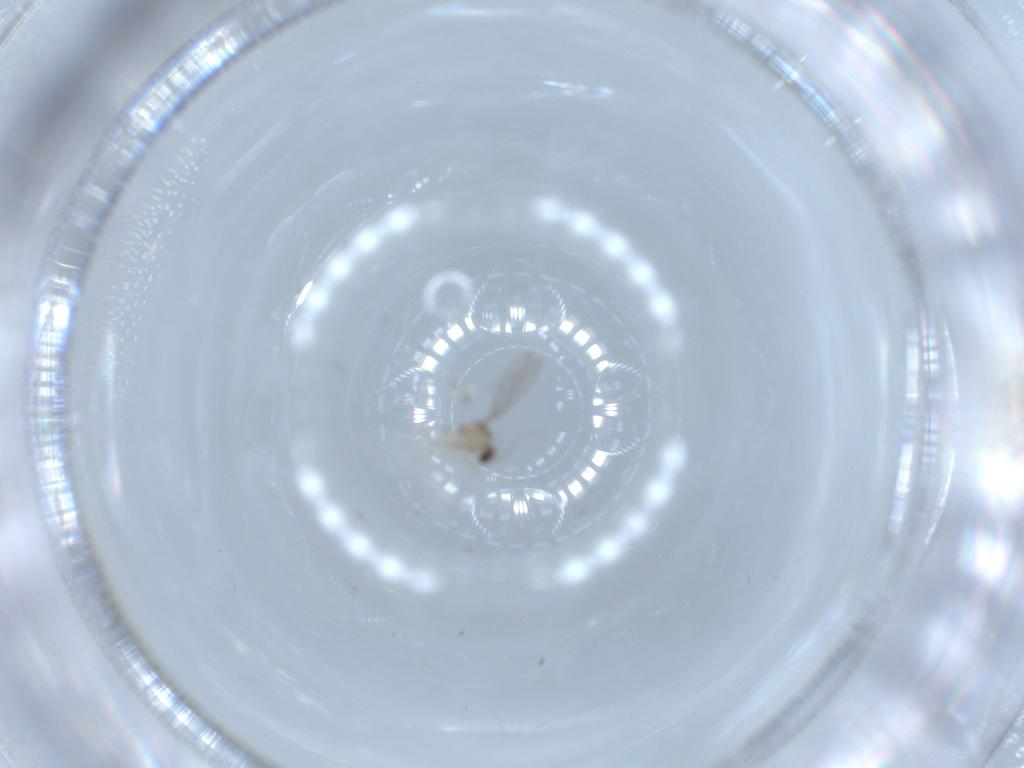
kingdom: Animalia
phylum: Arthropoda
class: Insecta
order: Diptera
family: Cecidomyiidae
